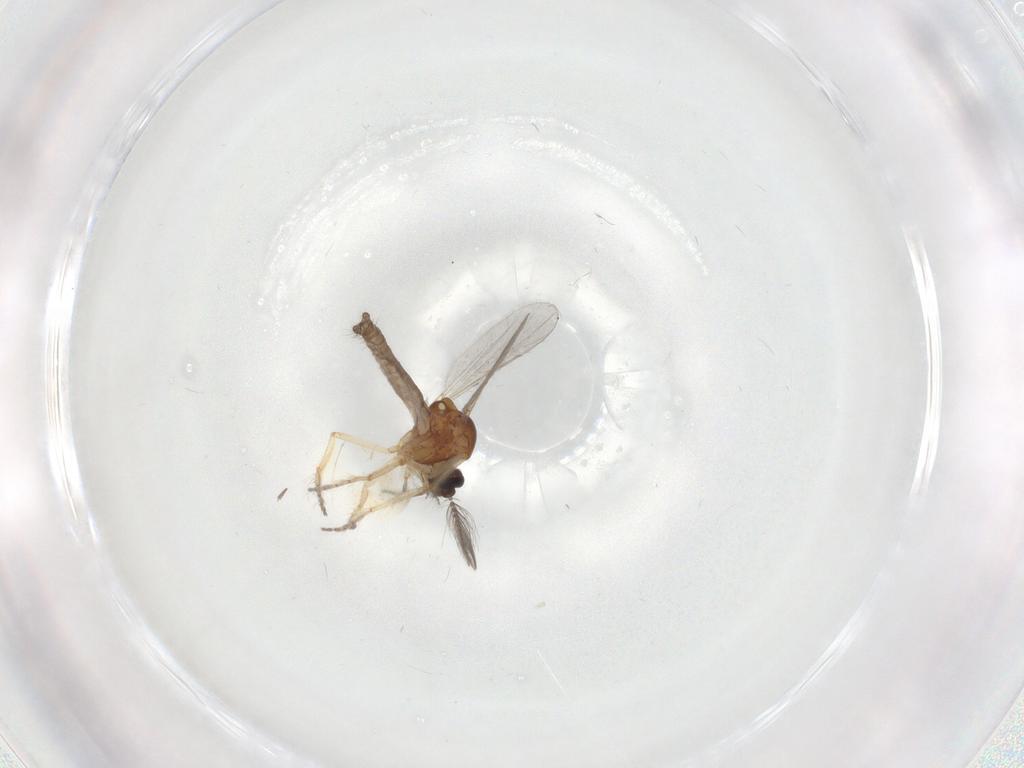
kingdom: Animalia
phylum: Arthropoda
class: Insecta
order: Diptera
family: Ceratopogonidae
